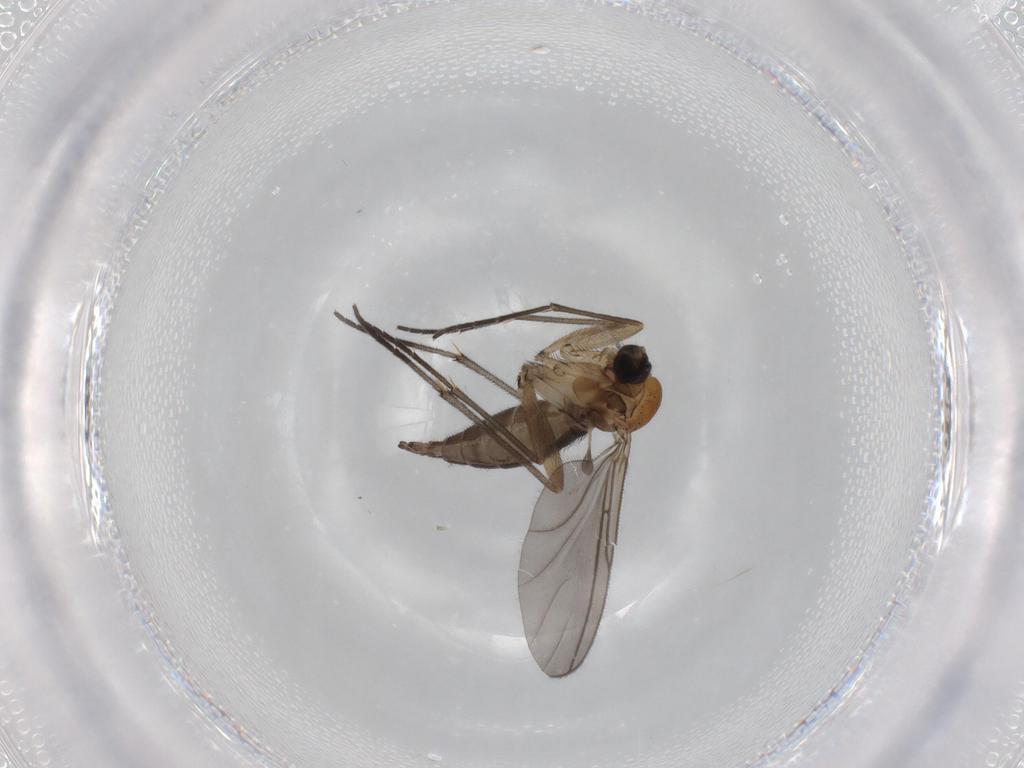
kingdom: Animalia
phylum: Arthropoda
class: Insecta
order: Diptera
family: Sciaridae
